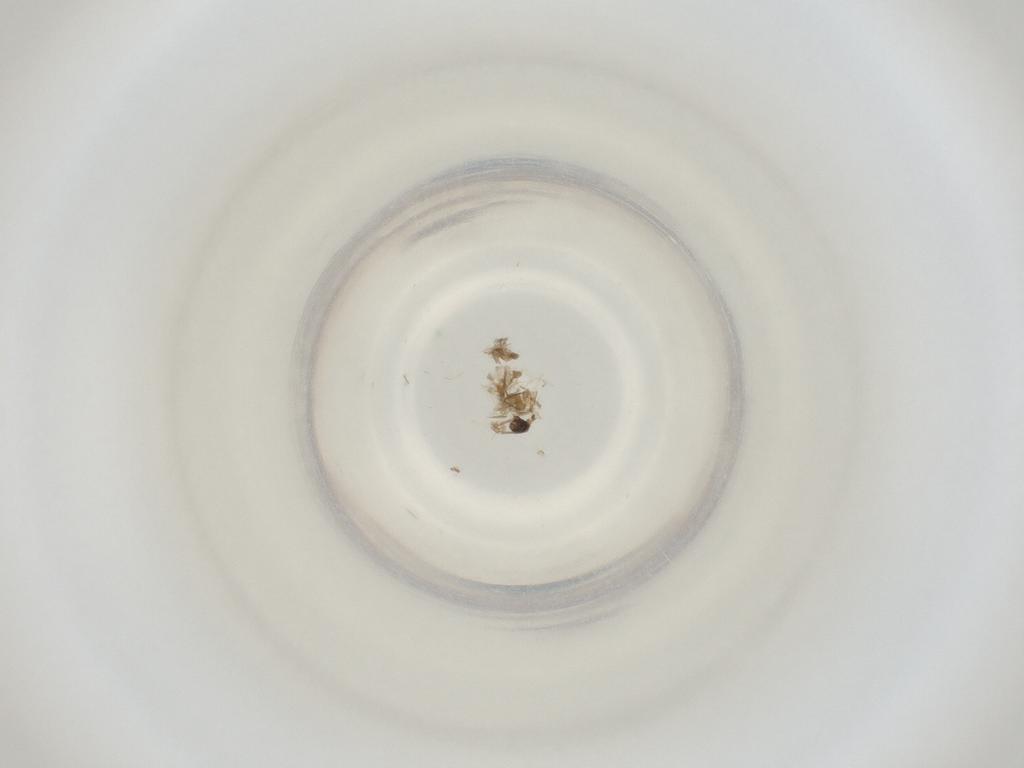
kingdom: Animalia
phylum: Arthropoda
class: Insecta
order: Diptera
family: Cecidomyiidae
